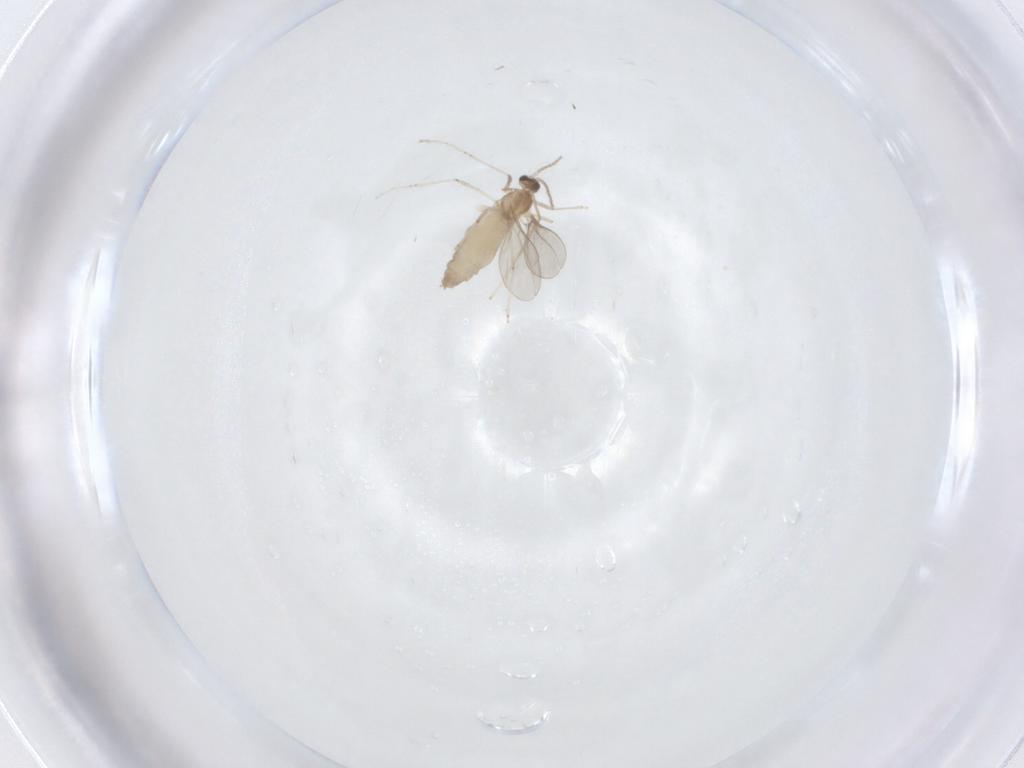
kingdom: Animalia
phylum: Arthropoda
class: Insecta
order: Diptera
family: Cecidomyiidae
